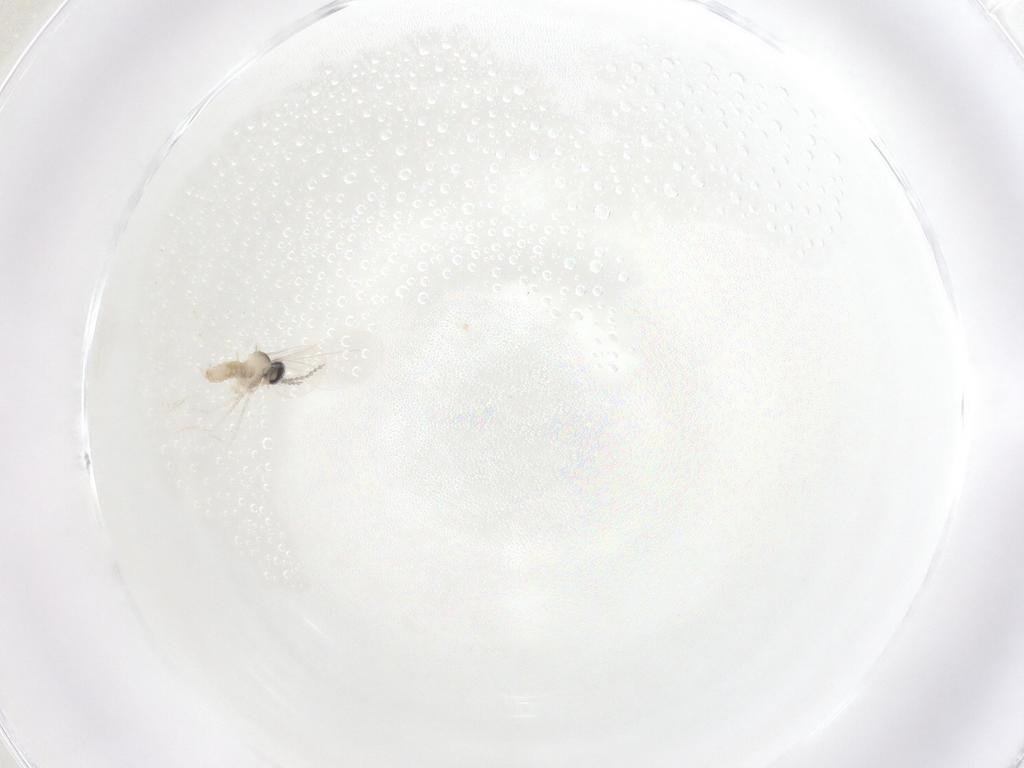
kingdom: Animalia
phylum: Arthropoda
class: Insecta
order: Diptera
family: Cecidomyiidae
